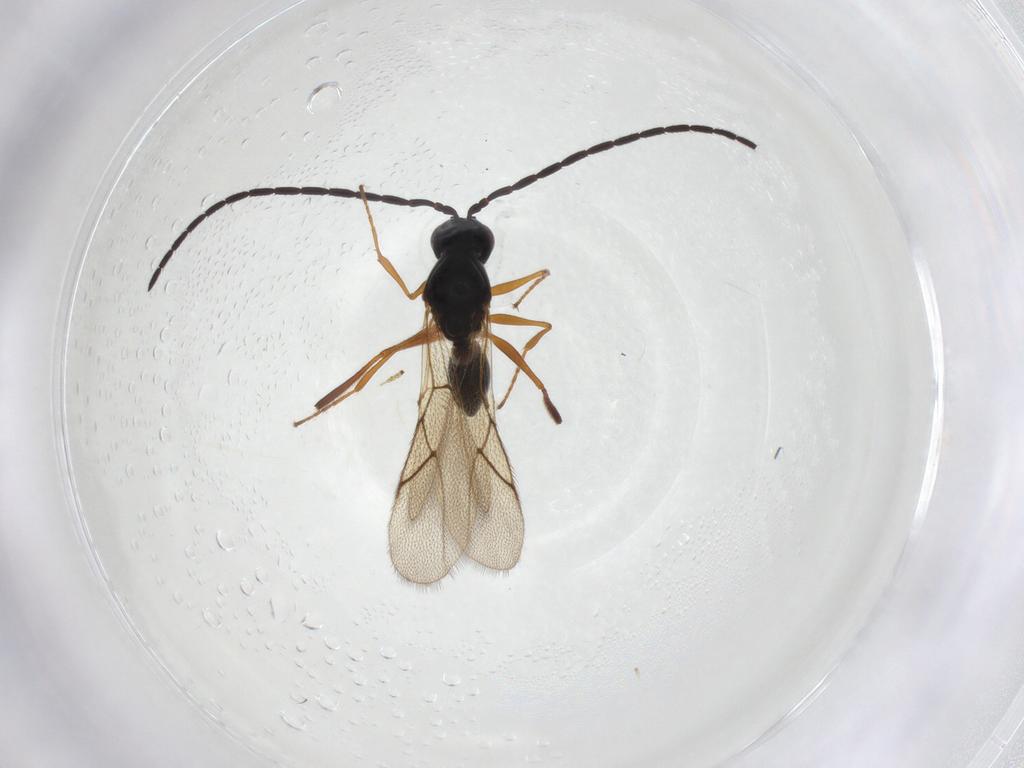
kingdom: Animalia
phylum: Arthropoda
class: Insecta
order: Hymenoptera
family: Figitidae
